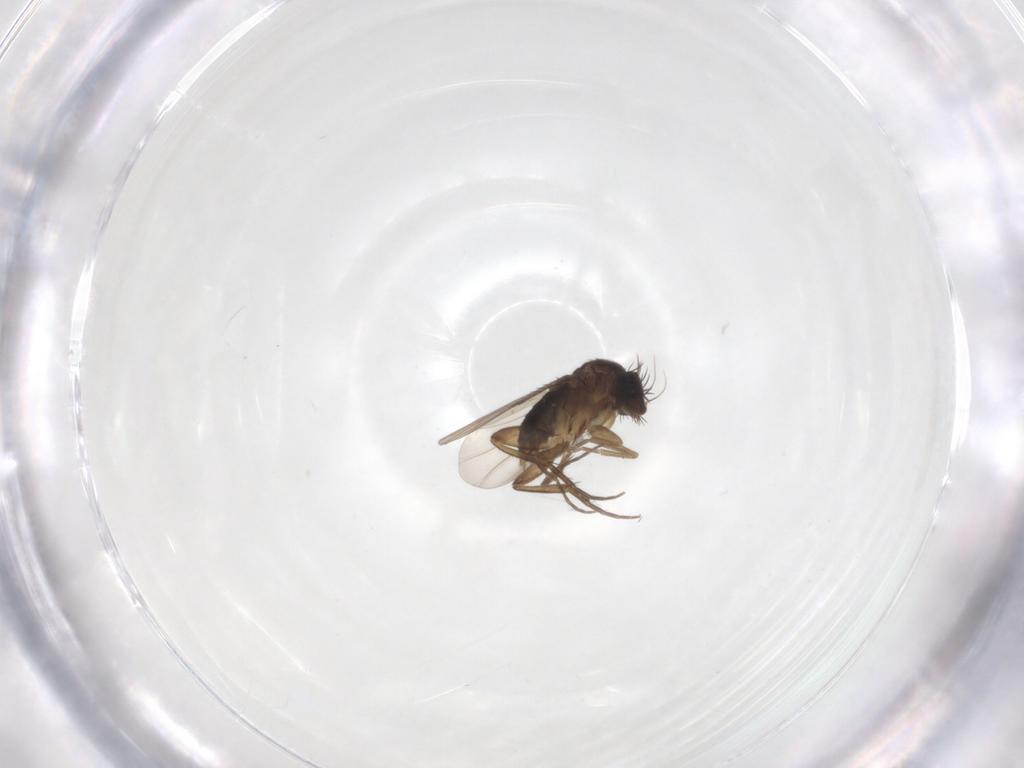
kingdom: Animalia
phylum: Arthropoda
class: Insecta
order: Diptera
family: Phoridae
